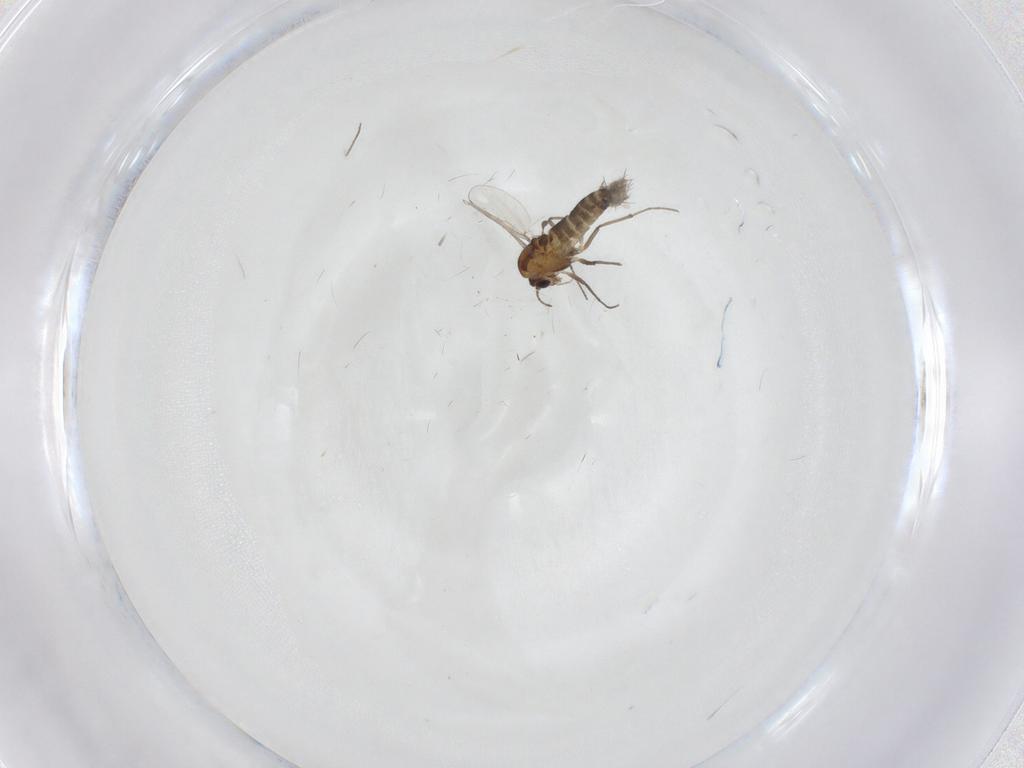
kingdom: Animalia
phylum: Arthropoda
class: Insecta
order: Diptera
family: Chironomidae
